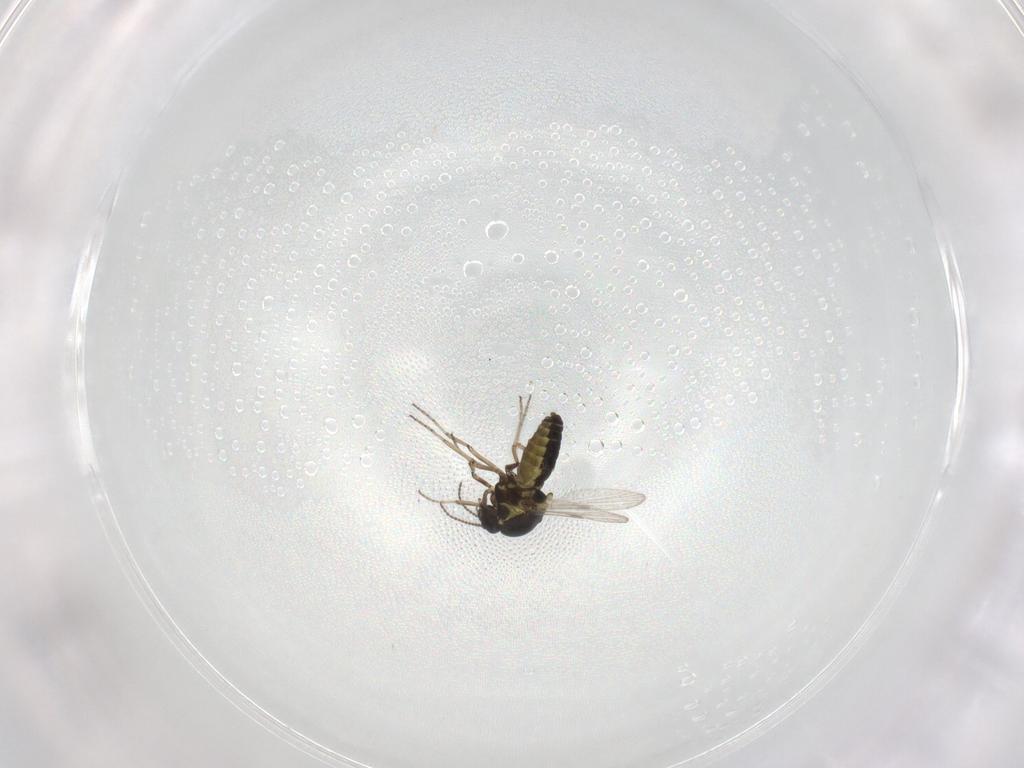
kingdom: Animalia
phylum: Arthropoda
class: Insecta
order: Diptera
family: Ceratopogonidae
